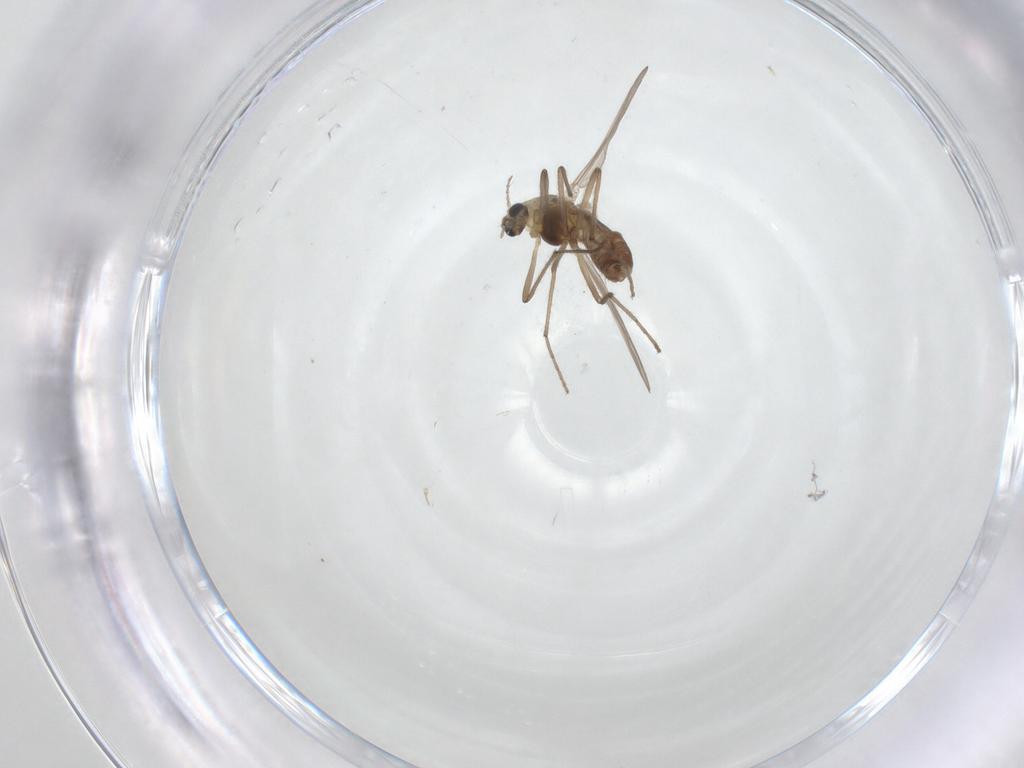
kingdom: Animalia
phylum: Arthropoda
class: Insecta
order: Diptera
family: Chironomidae
